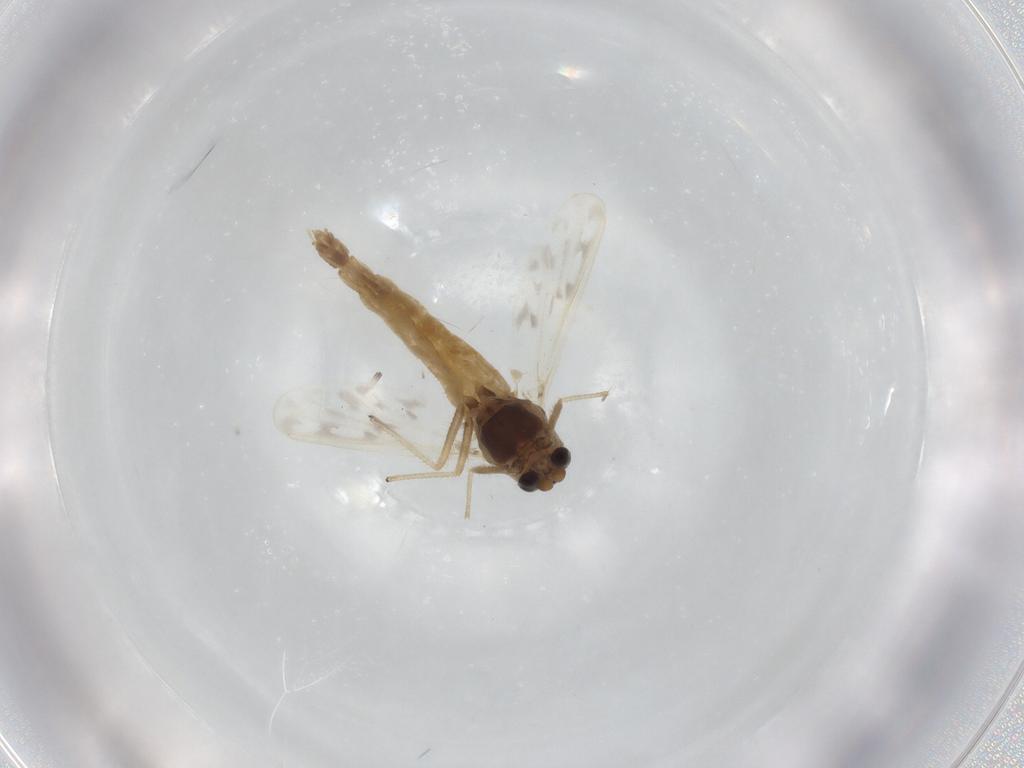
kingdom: Animalia
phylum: Arthropoda
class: Insecta
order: Diptera
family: Chironomidae
